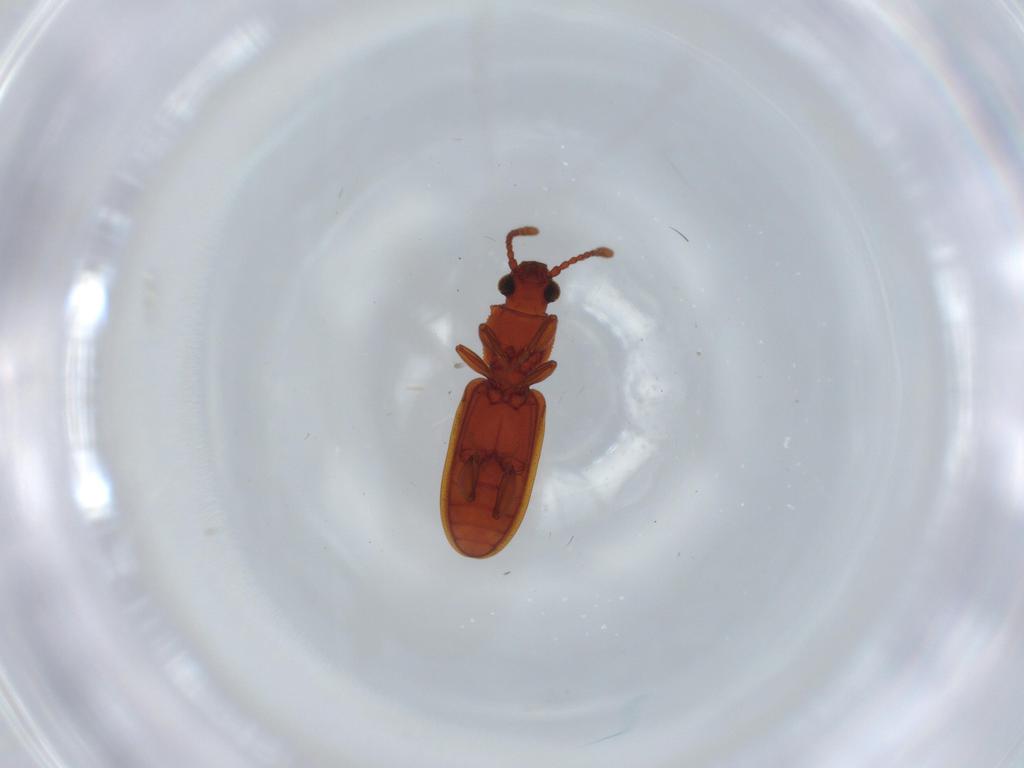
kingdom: Animalia
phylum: Arthropoda
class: Insecta
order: Coleoptera
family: Silvanidae
